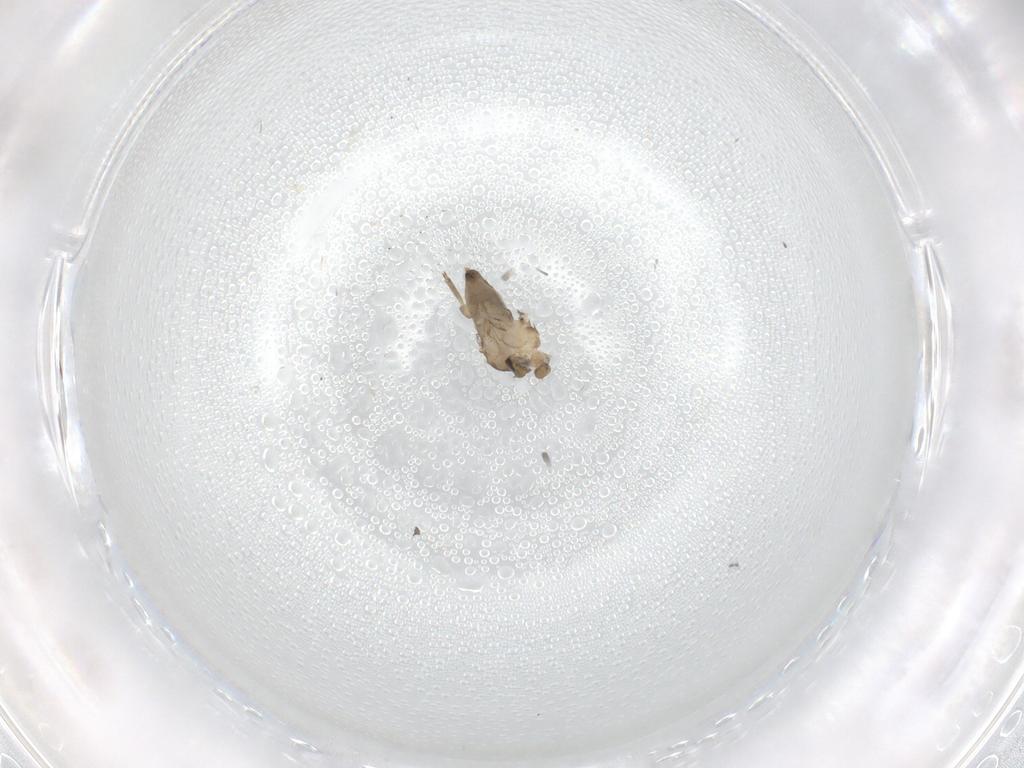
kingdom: Animalia
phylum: Arthropoda
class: Insecta
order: Diptera
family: Phoridae
